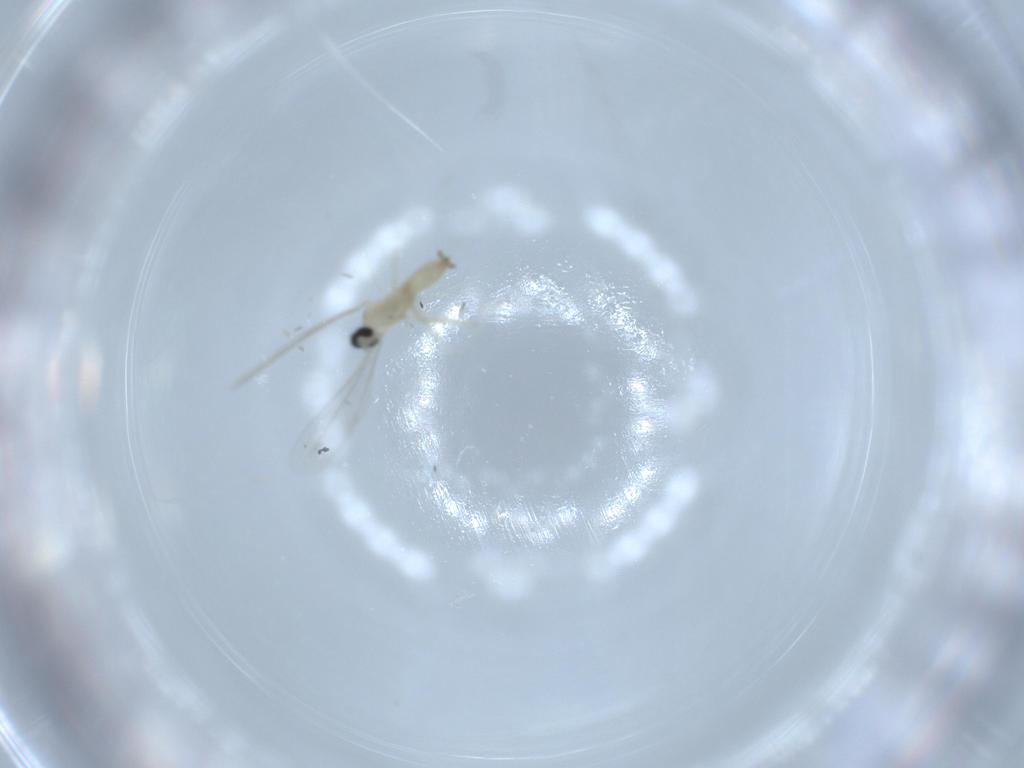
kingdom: Animalia
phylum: Arthropoda
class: Insecta
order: Diptera
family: Cecidomyiidae
